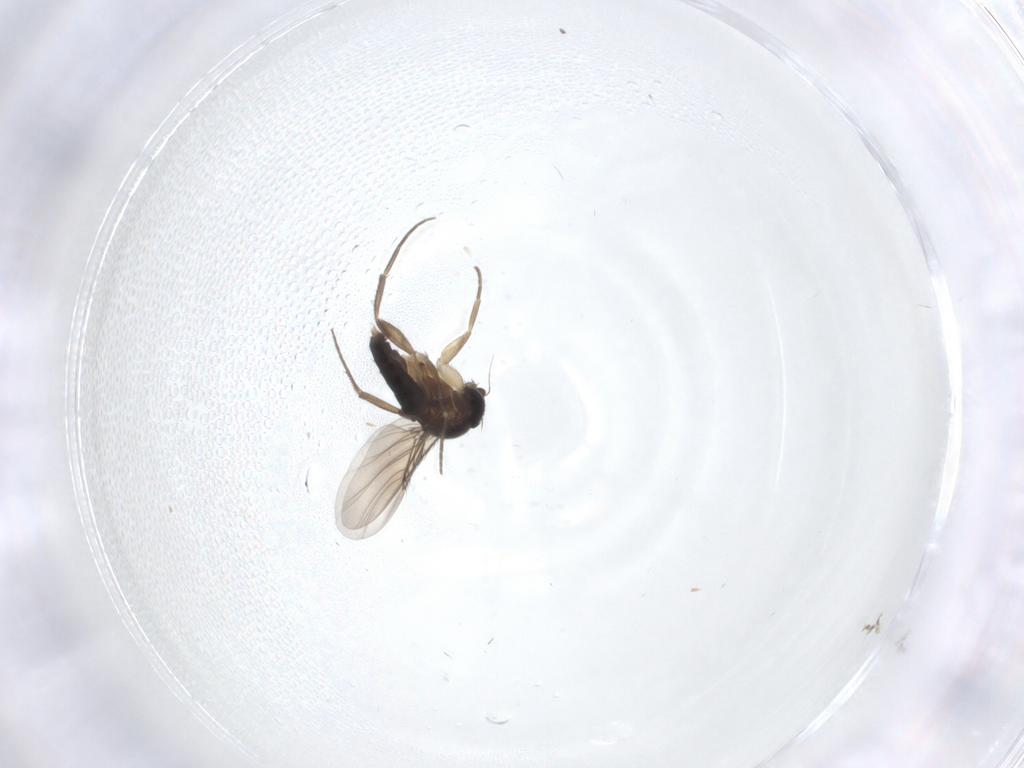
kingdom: Animalia
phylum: Arthropoda
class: Insecta
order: Diptera
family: Phoridae
